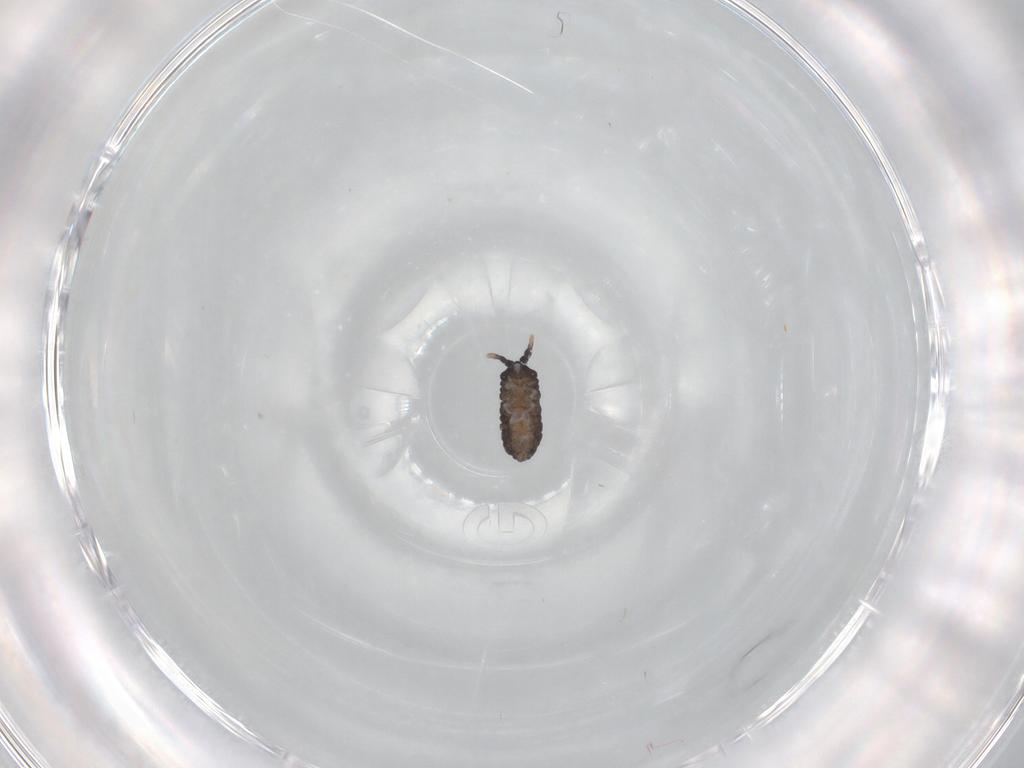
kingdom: Animalia
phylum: Arthropoda
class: Collembola
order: Poduromorpha
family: Neanuridae
